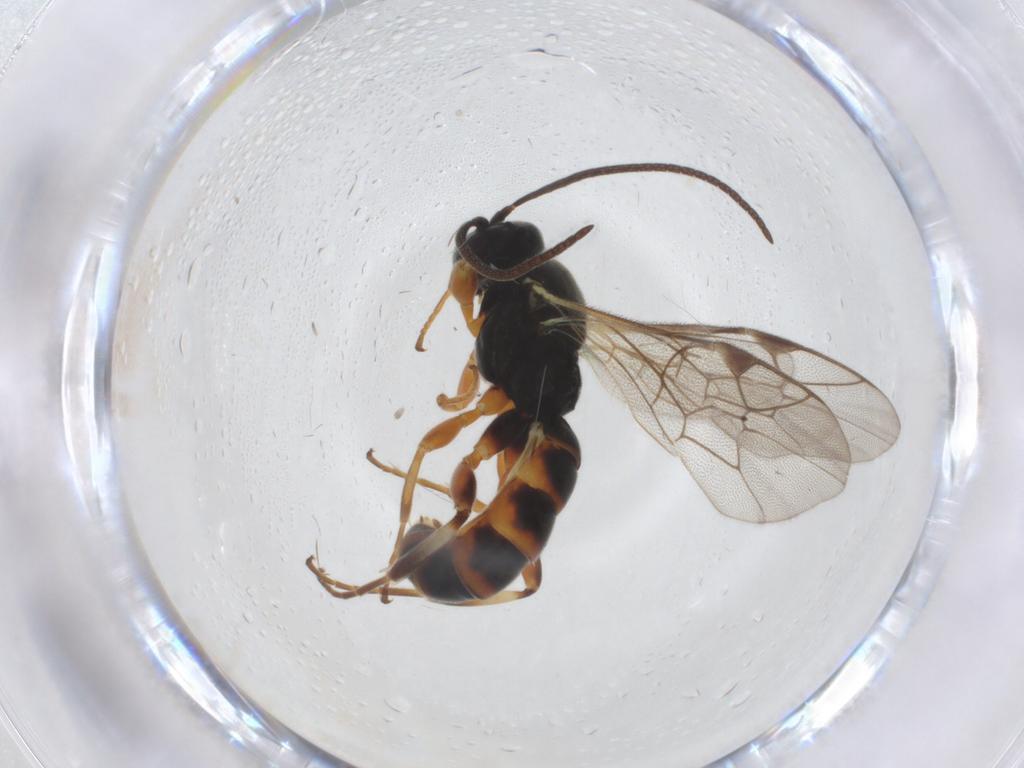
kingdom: Animalia
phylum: Arthropoda
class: Insecta
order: Hymenoptera
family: Ichneumonidae
